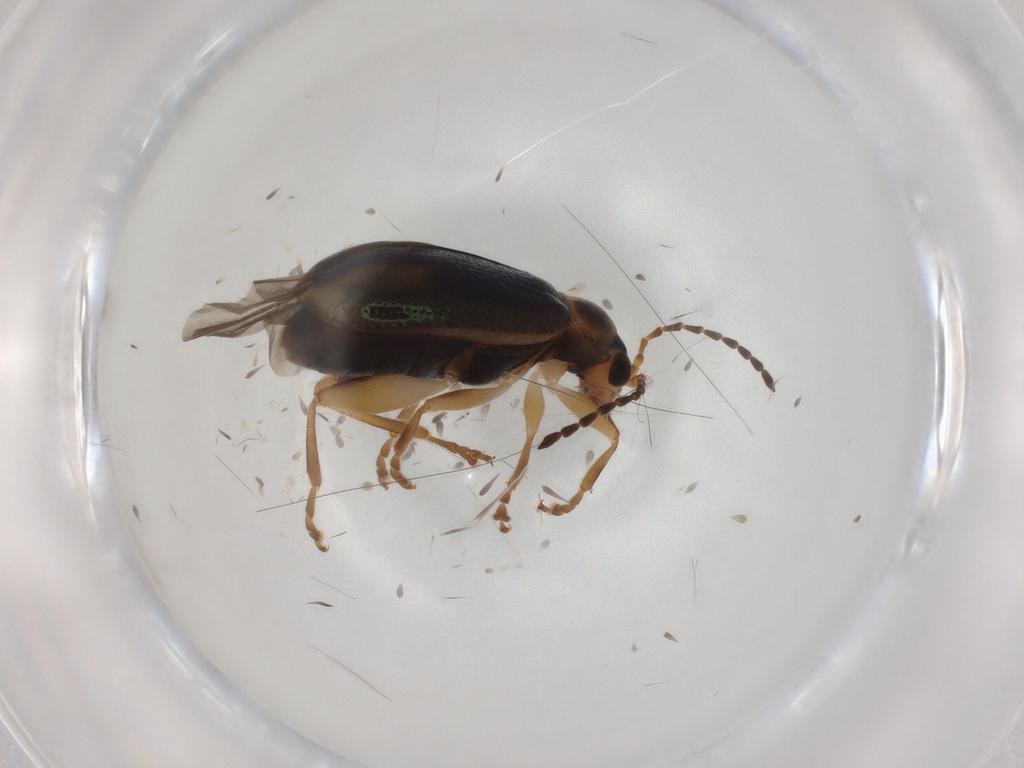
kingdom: Animalia
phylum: Arthropoda
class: Insecta
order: Coleoptera
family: Chrysomelidae
